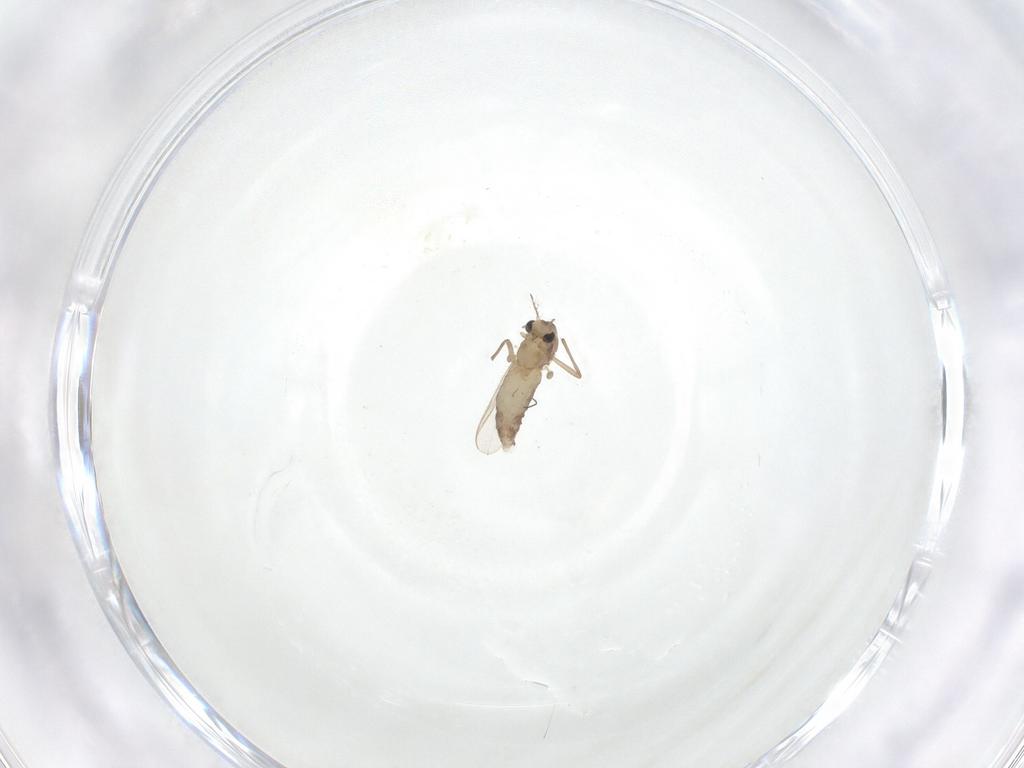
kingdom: Animalia
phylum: Arthropoda
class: Insecta
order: Diptera
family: Chironomidae
